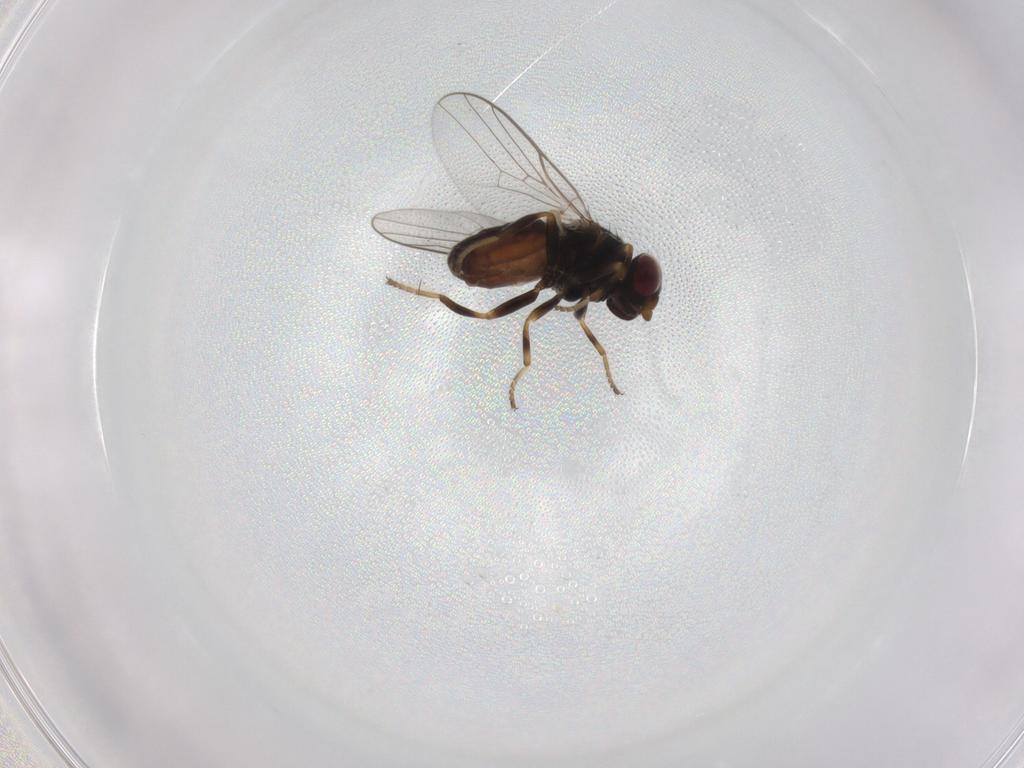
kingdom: Animalia
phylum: Arthropoda
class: Insecta
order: Diptera
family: Chloropidae
